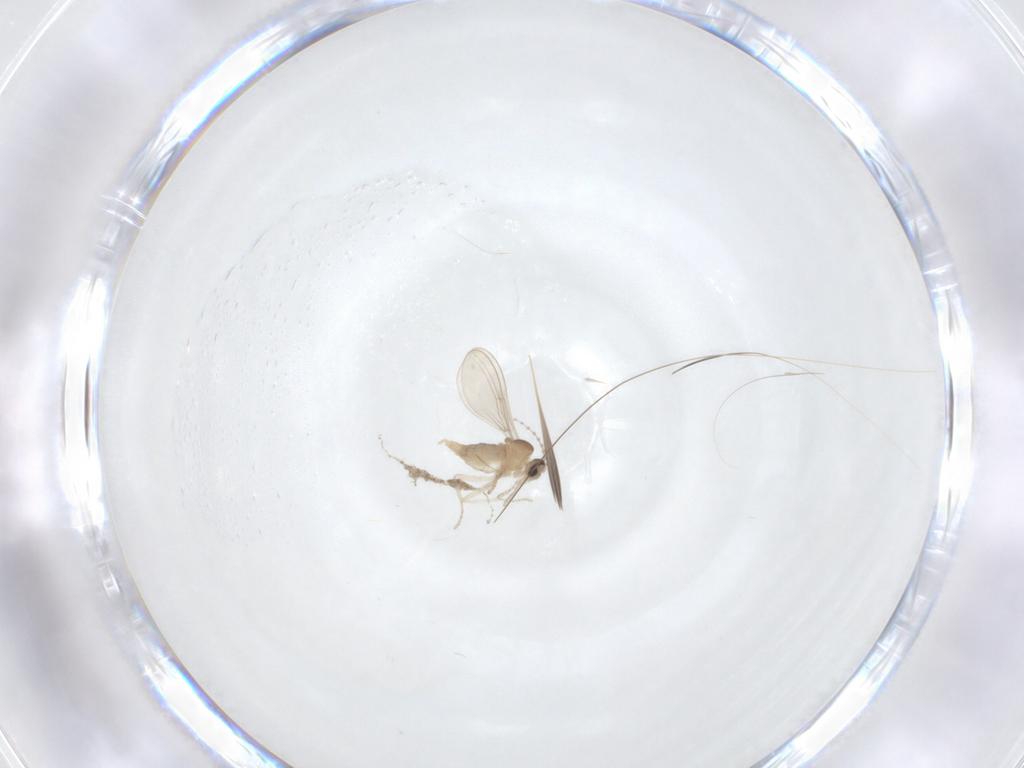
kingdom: Animalia
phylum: Arthropoda
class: Insecta
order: Diptera
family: Cecidomyiidae
